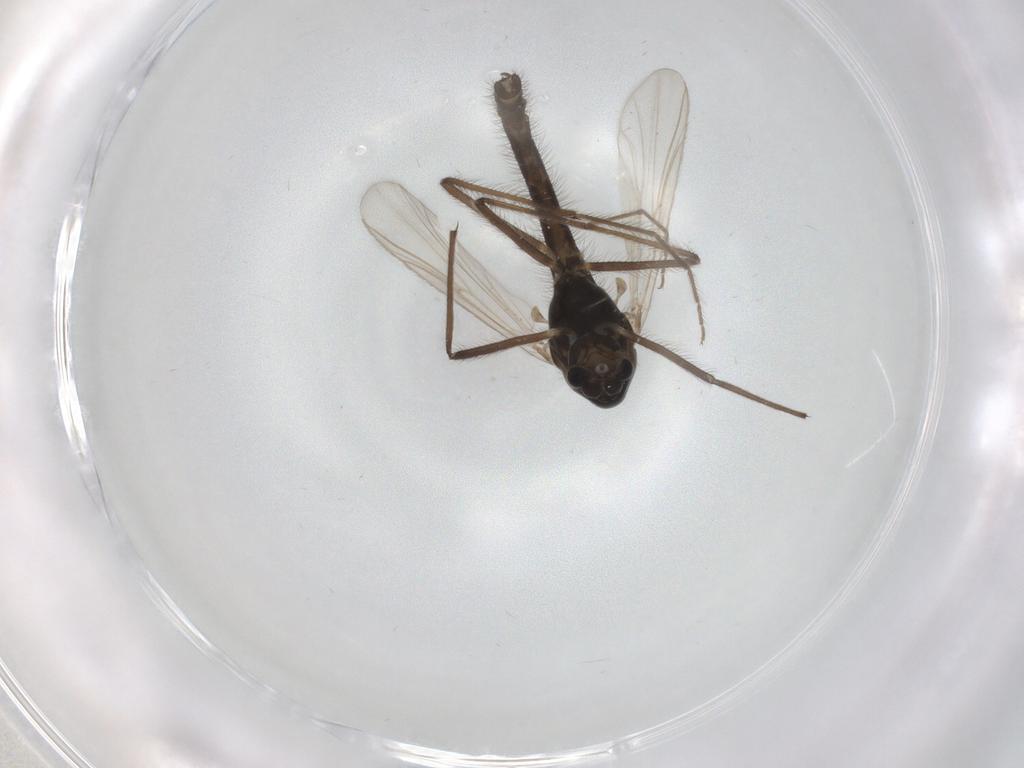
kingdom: Animalia
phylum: Arthropoda
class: Insecta
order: Diptera
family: Chironomidae
